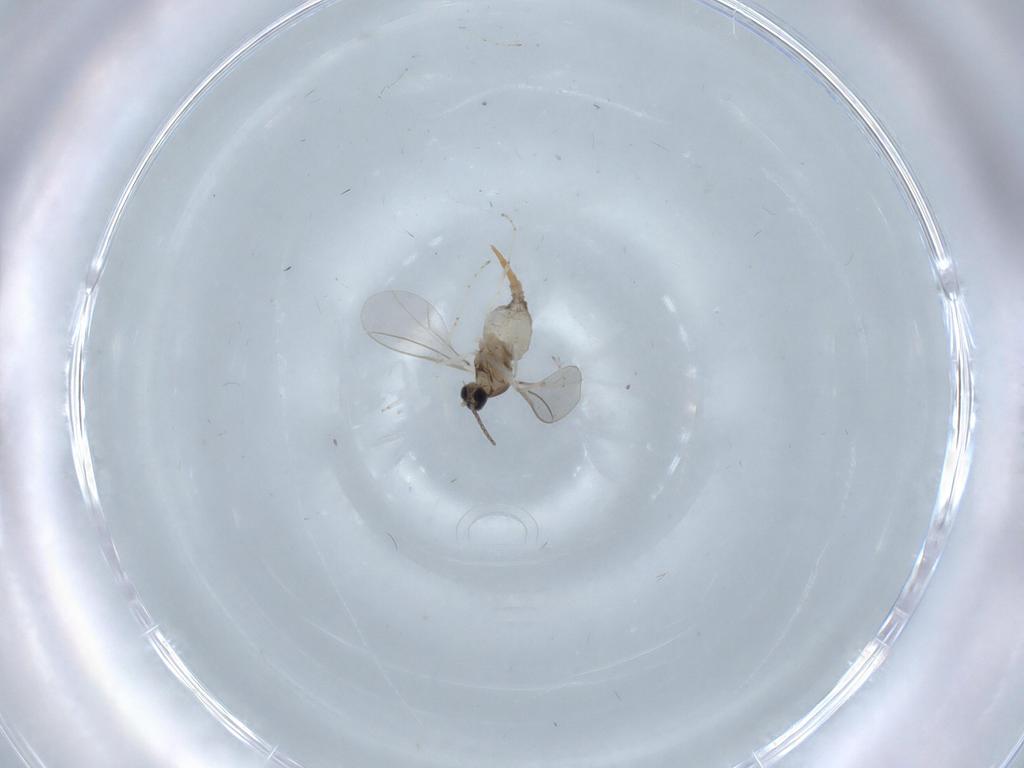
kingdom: Animalia
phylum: Arthropoda
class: Insecta
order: Diptera
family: Cecidomyiidae
